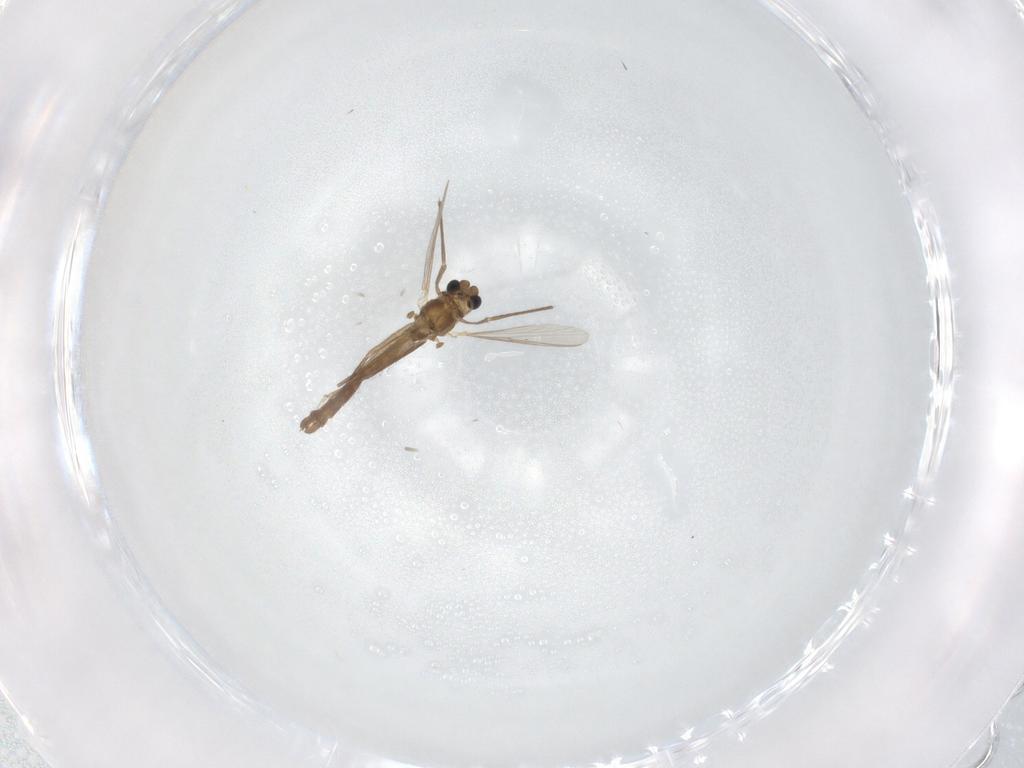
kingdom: Animalia
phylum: Arthropoda
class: Insecta
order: Diptera
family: Chironomidae
